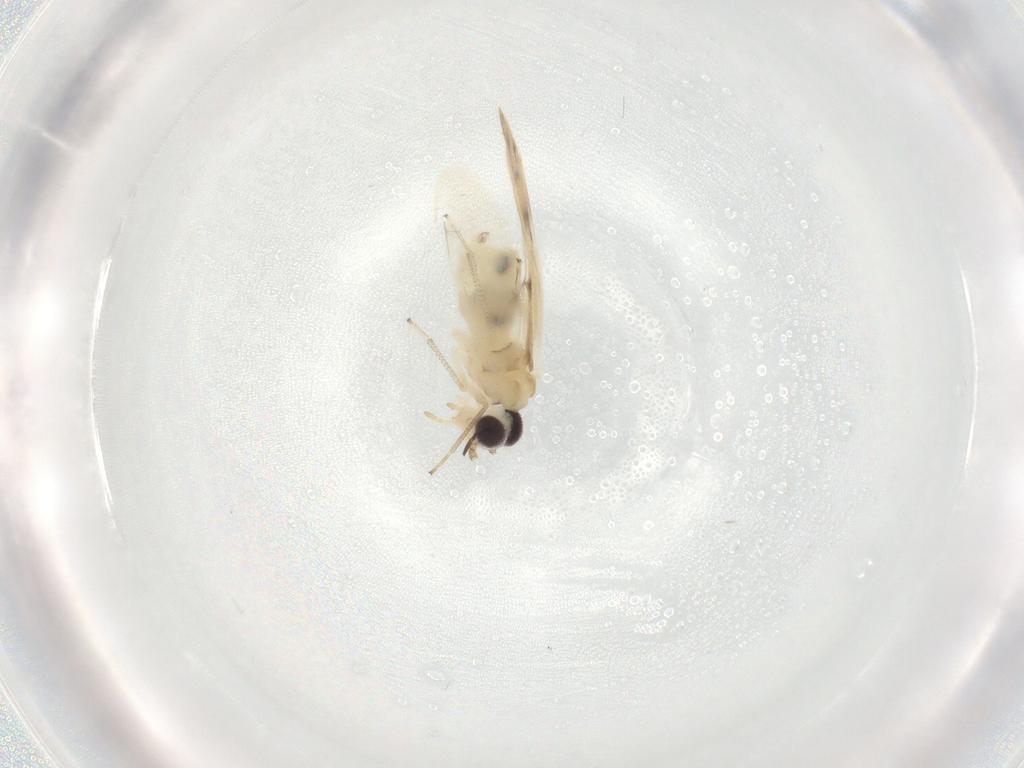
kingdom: Animalia
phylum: Arthropoda
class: Insecta
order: Psocodea
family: Caeciliusidae
